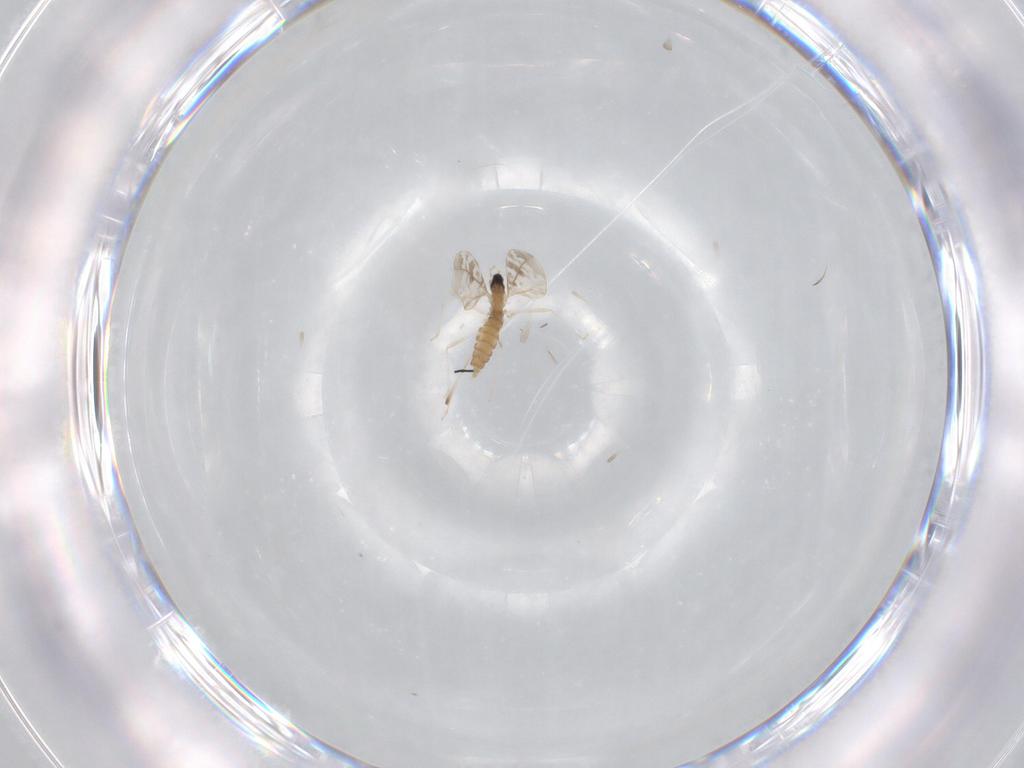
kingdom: Animalia
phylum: Arthropoda
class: Insecta
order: Diptera
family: Cecidomyiidae
